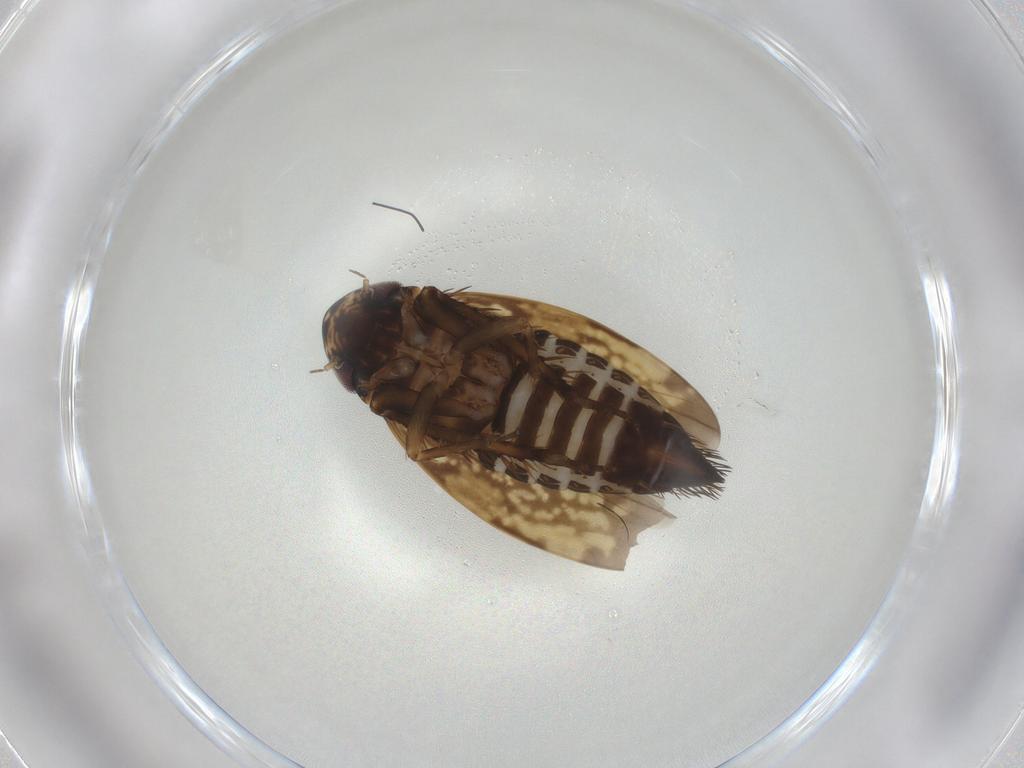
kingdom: Animalia
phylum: Arthropoda
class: Insecta
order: Hemiptera
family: Cicadellidae
